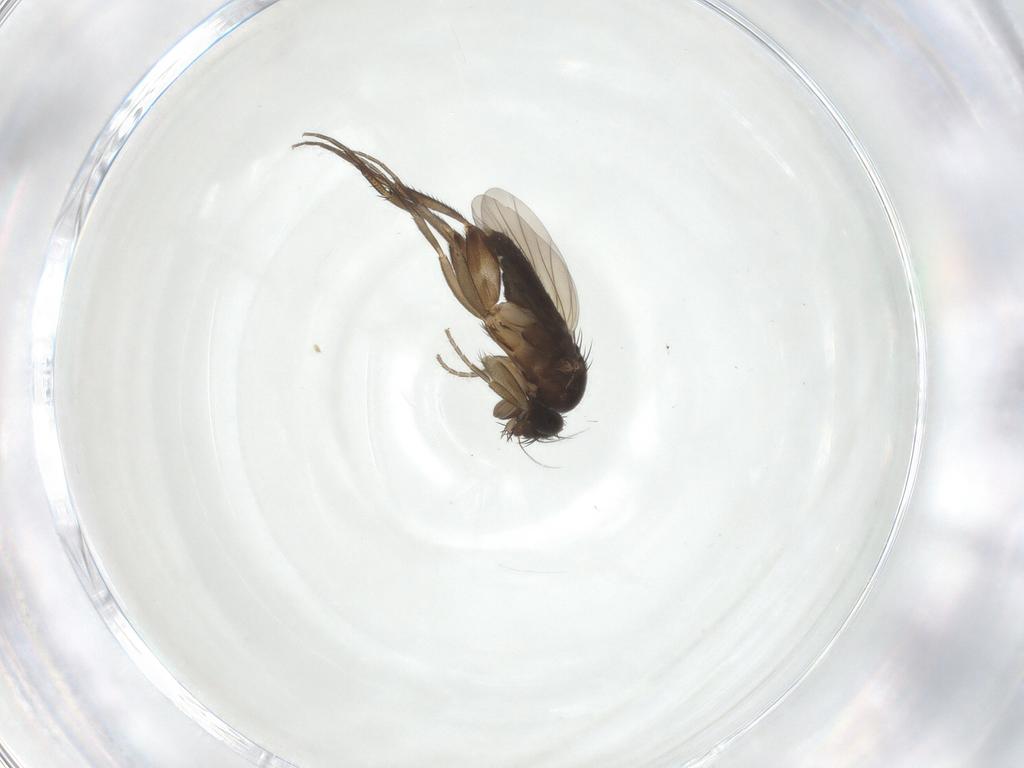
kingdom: Animalia
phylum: Arthropoda
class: Insecta
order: Diptera
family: Phoridae
